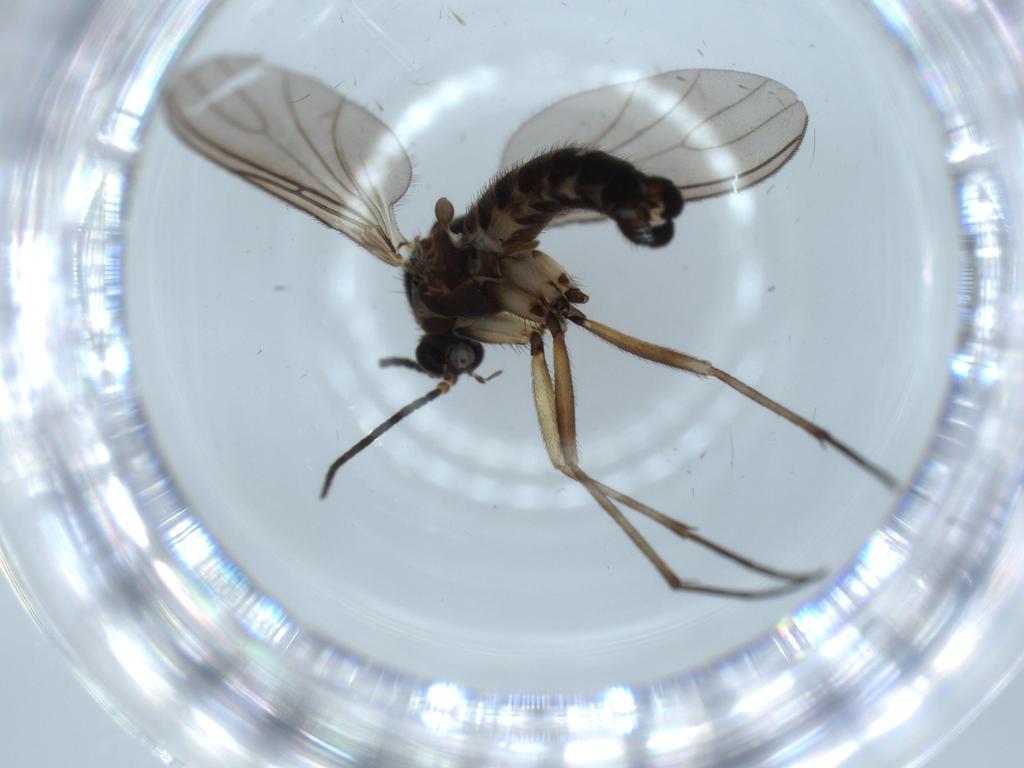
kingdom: Animalia
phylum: Arthropoda
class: Insecta
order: Diptera
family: Sciaridae
